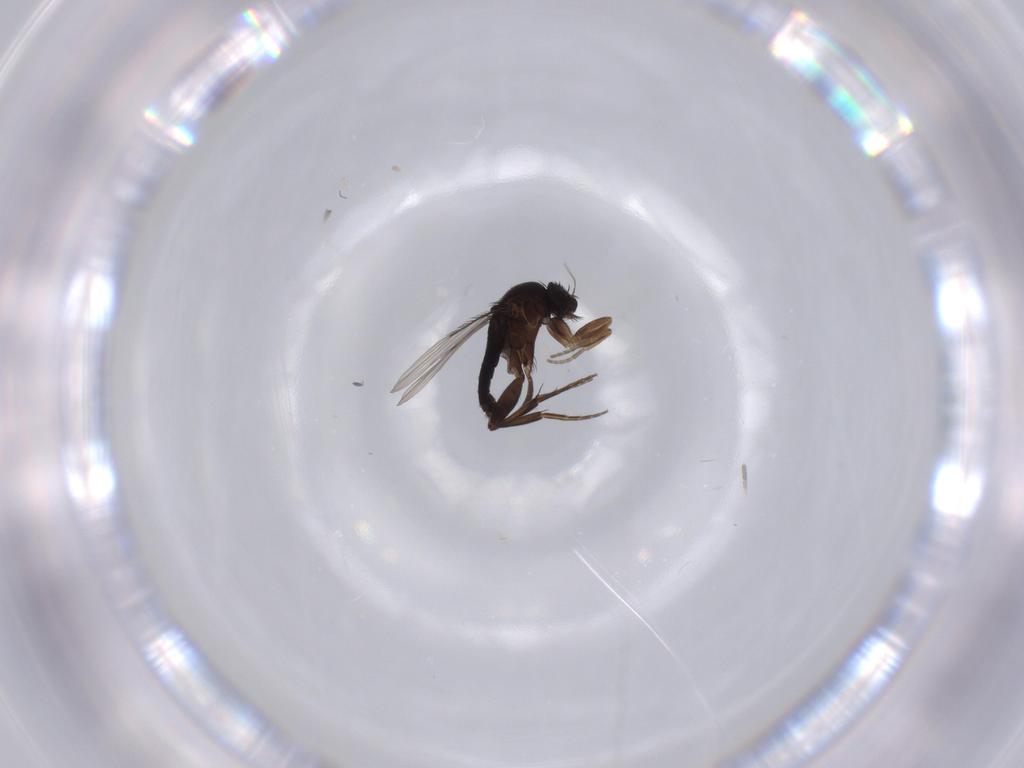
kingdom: Animalia
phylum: Arthropoda
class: Insecta
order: Diptera
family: Phoridae
